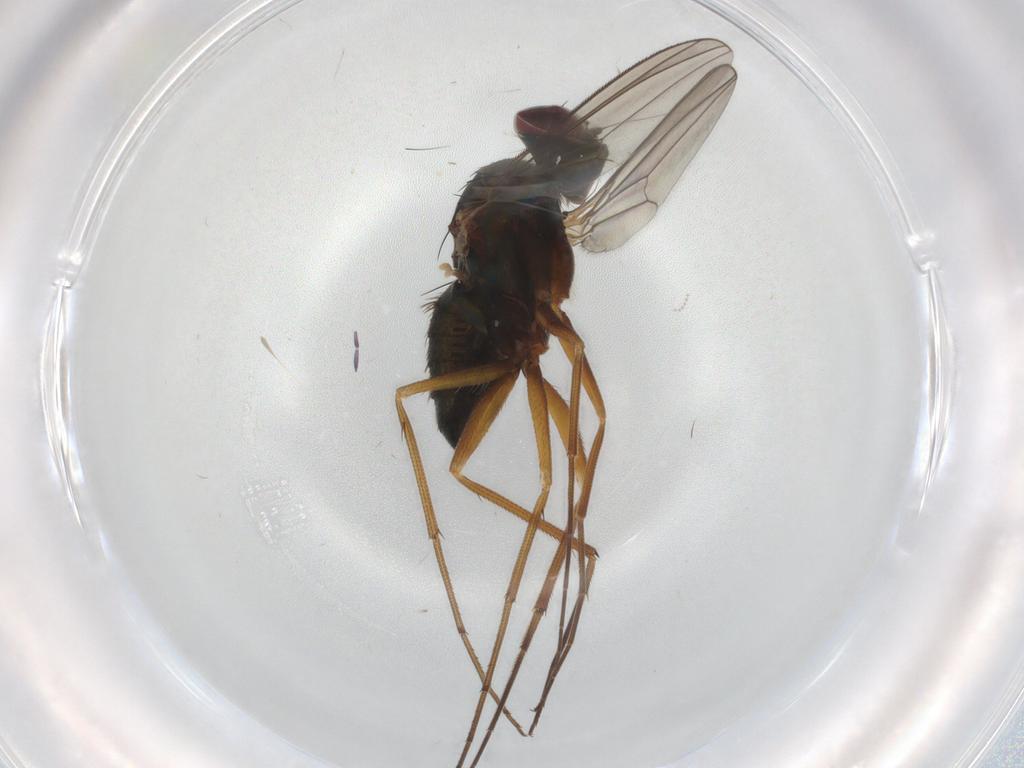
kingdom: Animalia
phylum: Arthropoda
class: Insecta
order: Diptera
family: Dolichopodidae
